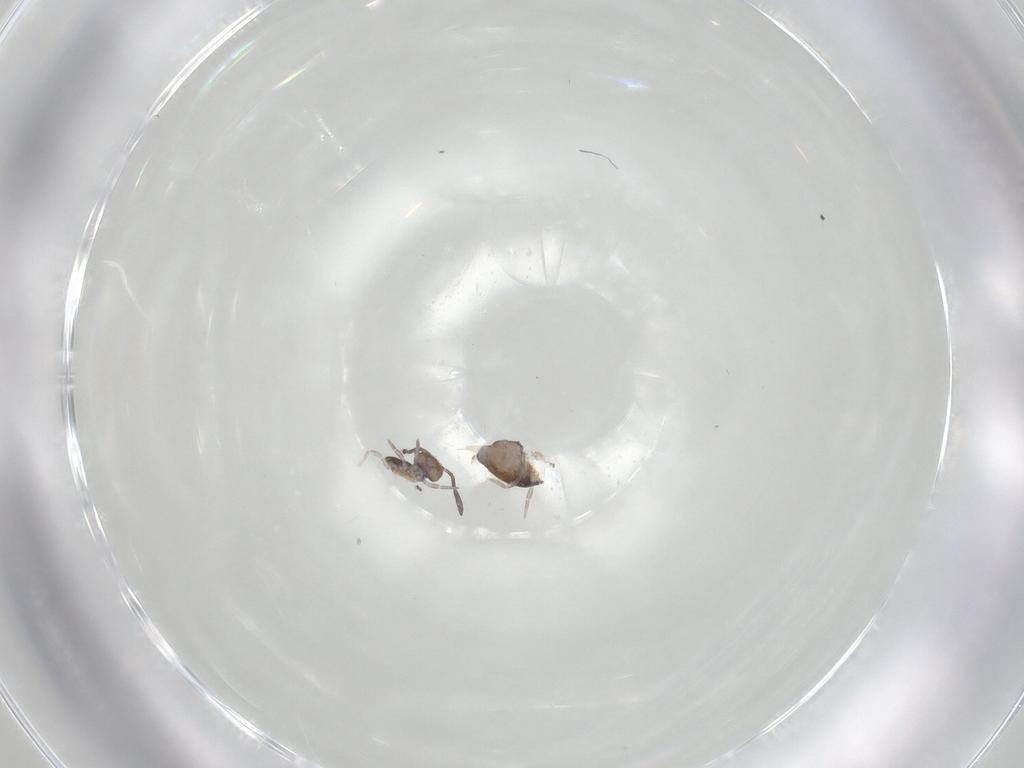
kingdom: Animalia
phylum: Arthropoda
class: Collembola
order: Symphypleona
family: Katiannidae
